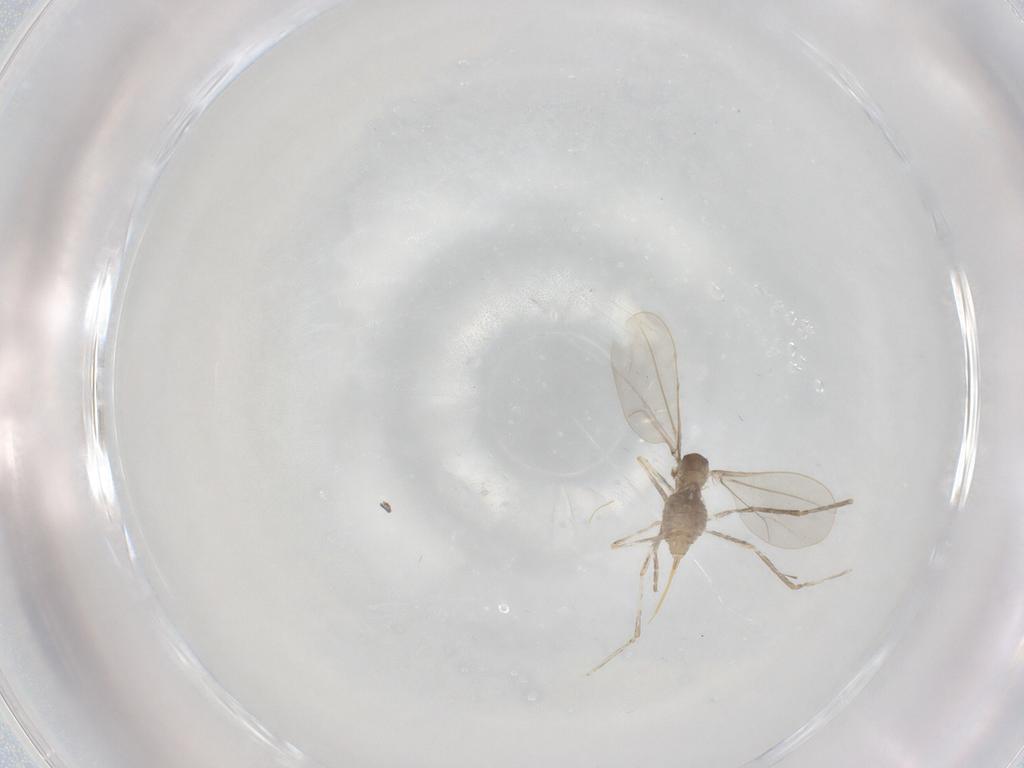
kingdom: Animalia
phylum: Arthropoda
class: Insecta
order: Diptera
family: Cecidomyiidae
